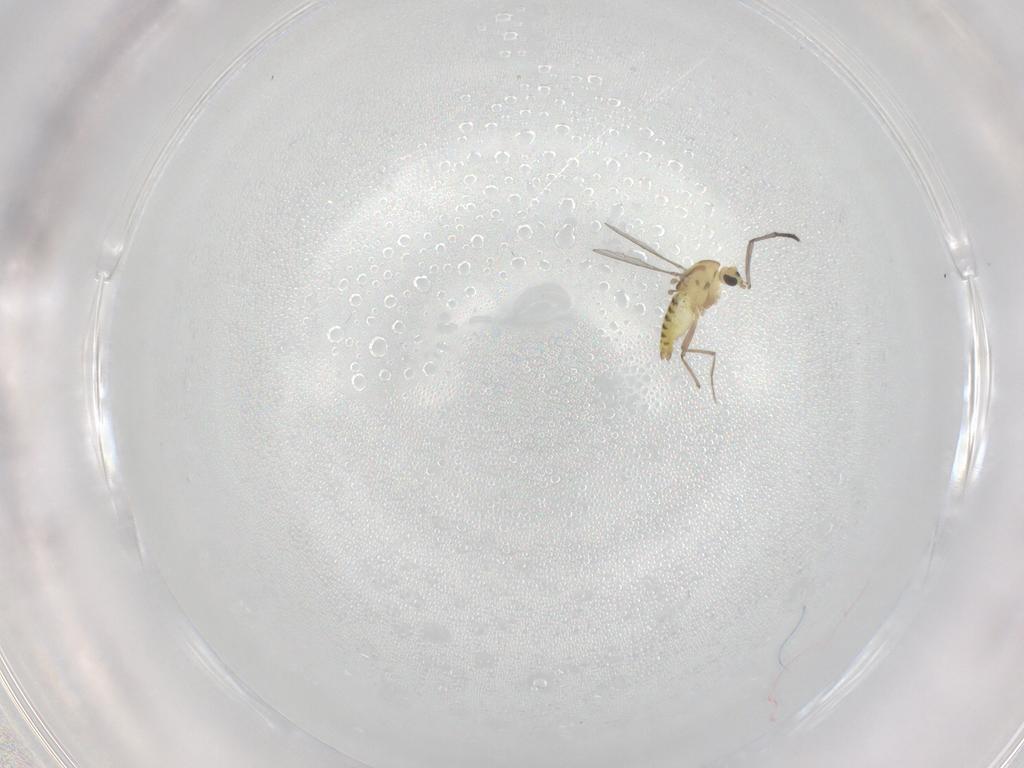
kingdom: Animalia
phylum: Arthropoda
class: Insecta
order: Diptera
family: Sciaridae
